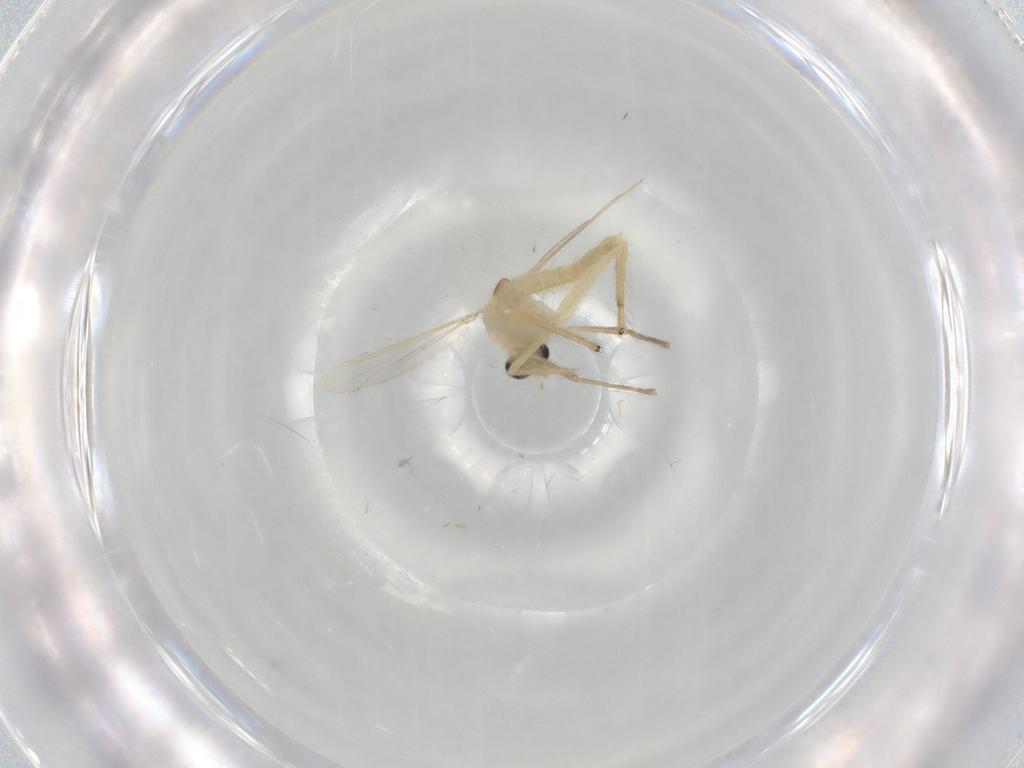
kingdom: Animalia
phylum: Arthropoda
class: Insecta
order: Diptera
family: Chironomidae
